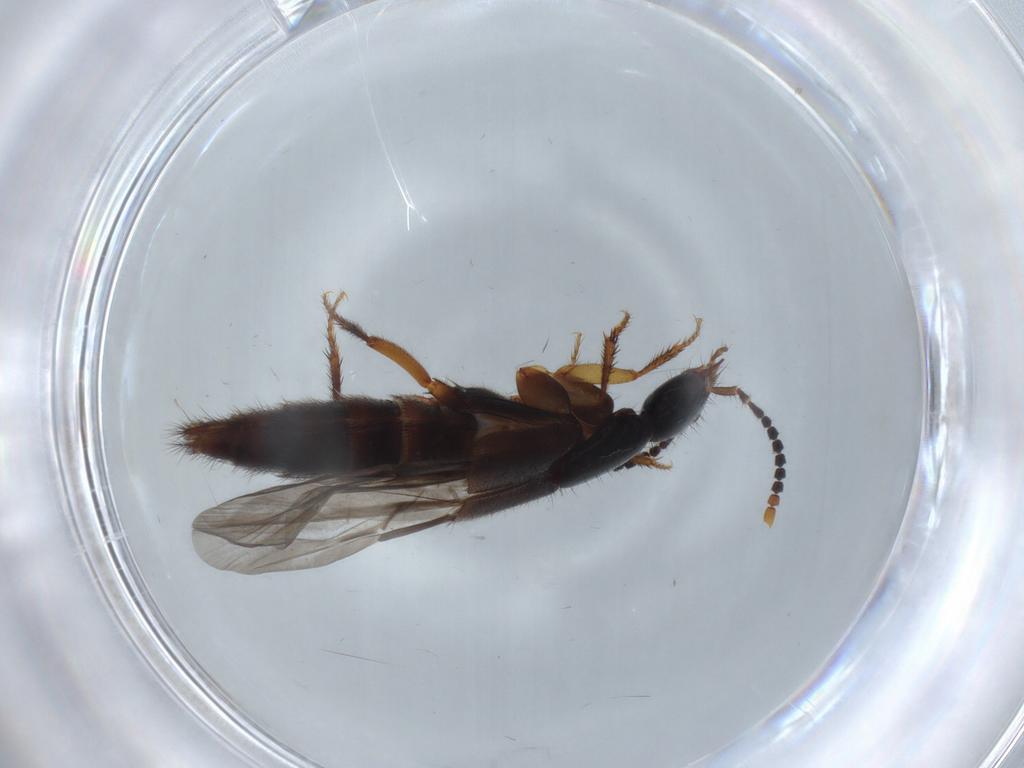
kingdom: Animalia
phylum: Arthropoda
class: Insecta
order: Coleoptera
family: Staphylinidae
